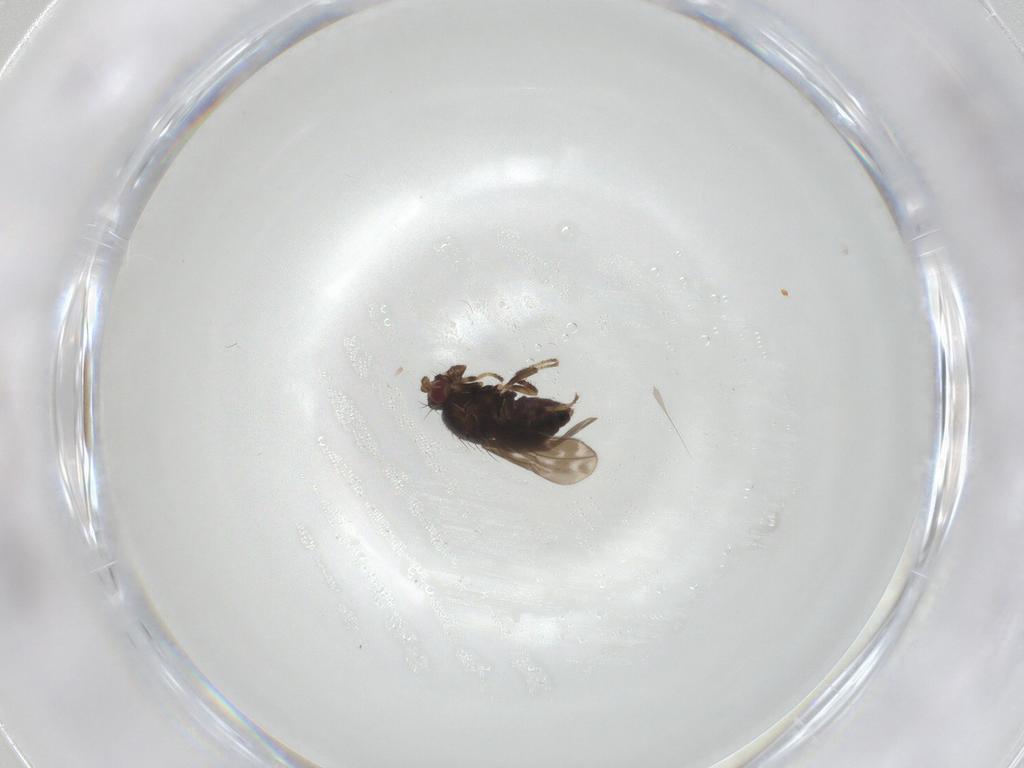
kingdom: Animalia
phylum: Arthropoda
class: Insecta
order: Diptera
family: Sphaeroceridae
